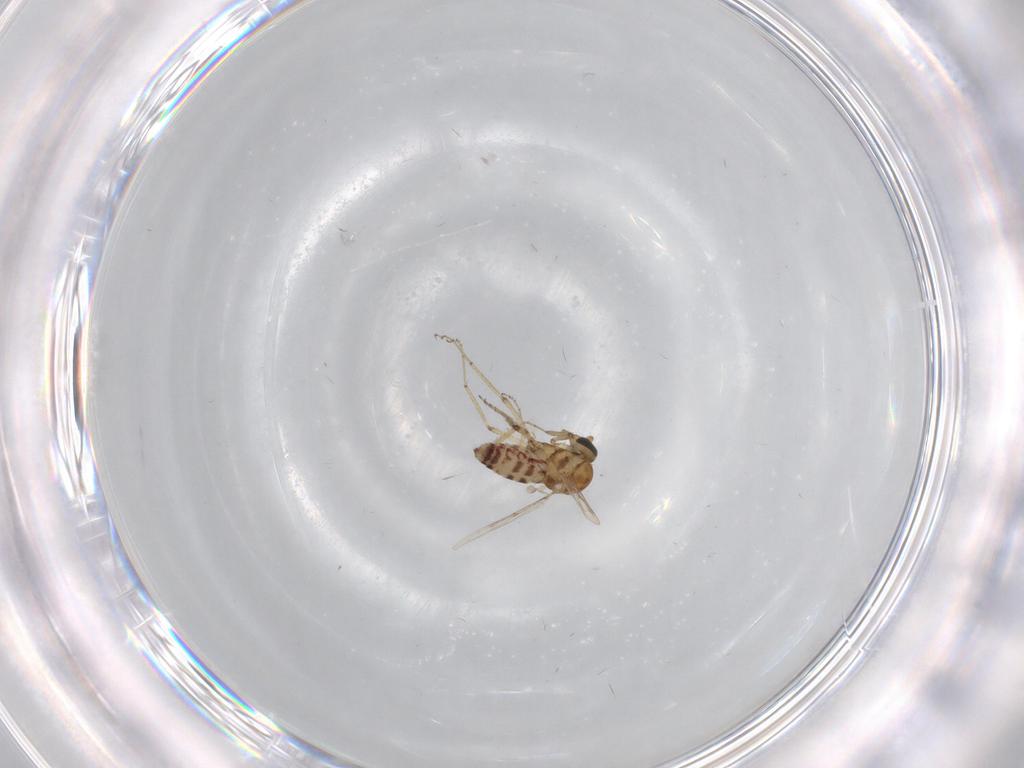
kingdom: Animalia
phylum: Arthropoda
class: Insecta
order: Diptera
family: Ceratopogonidae
